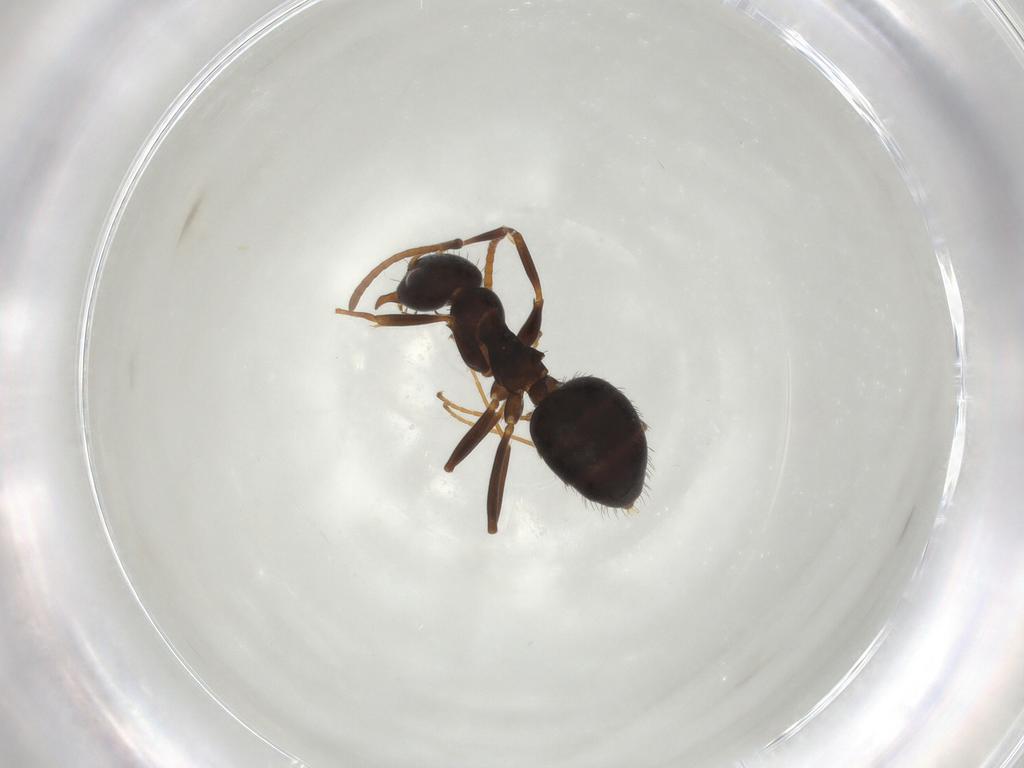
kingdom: Animalia
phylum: Arthropoda
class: Insecta
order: Hymenoptera
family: Formicidae
